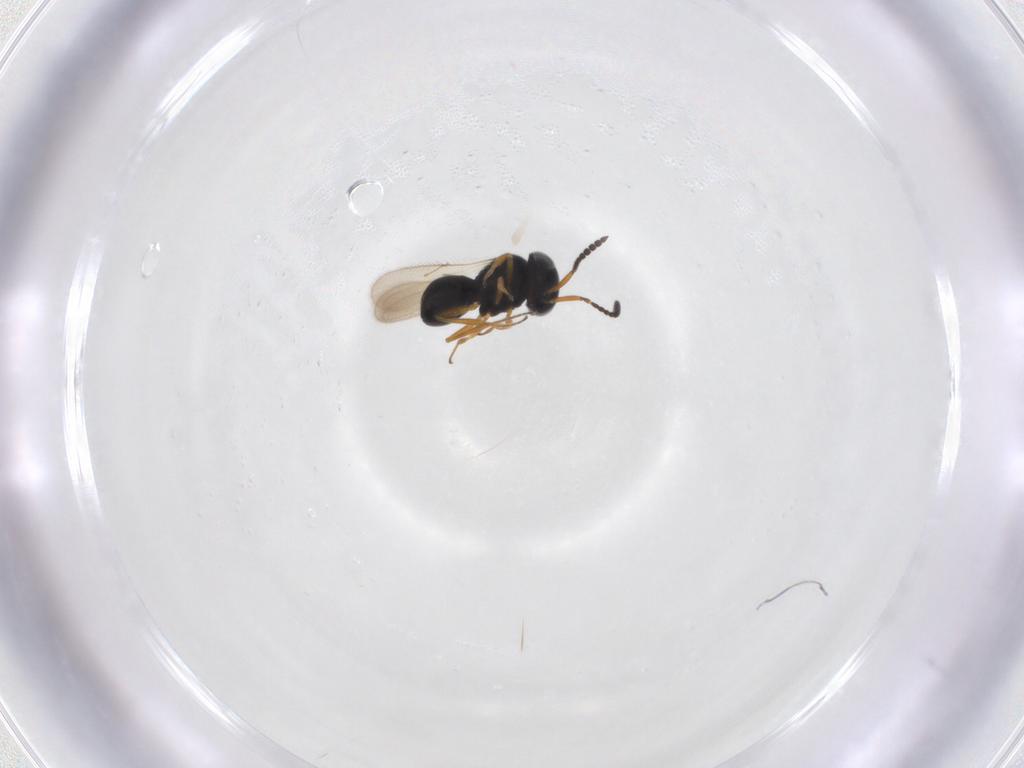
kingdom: Animalia
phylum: Arthropoda
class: Insecta
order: Hymenoptera
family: Scelionidae
